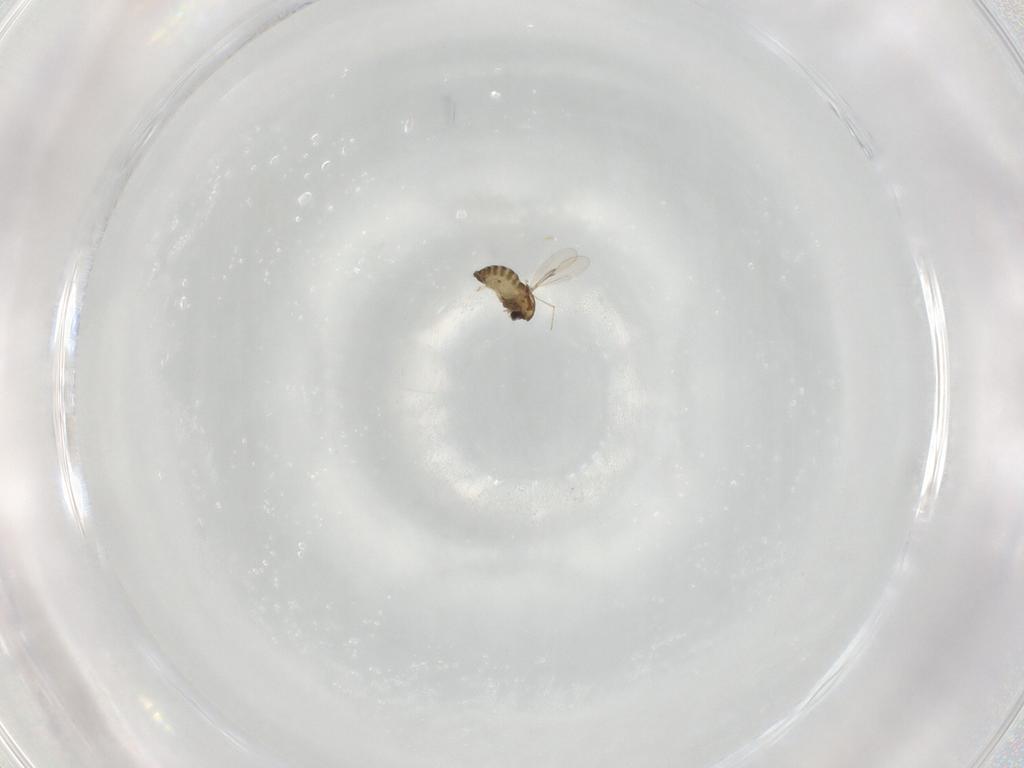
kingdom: Animalia
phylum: Arthropoda
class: Insecta
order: Diptera
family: Chironomidae
